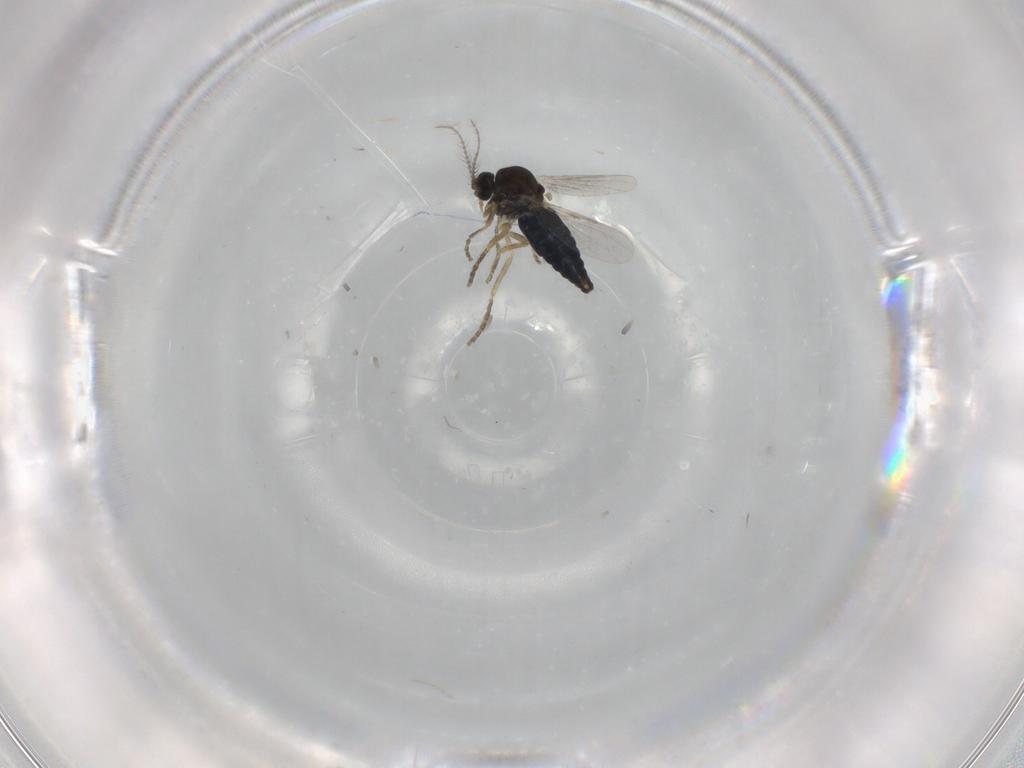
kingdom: Animalia
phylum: Arthropoda
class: Insecta
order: Diptera
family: Ceratopogonidae
